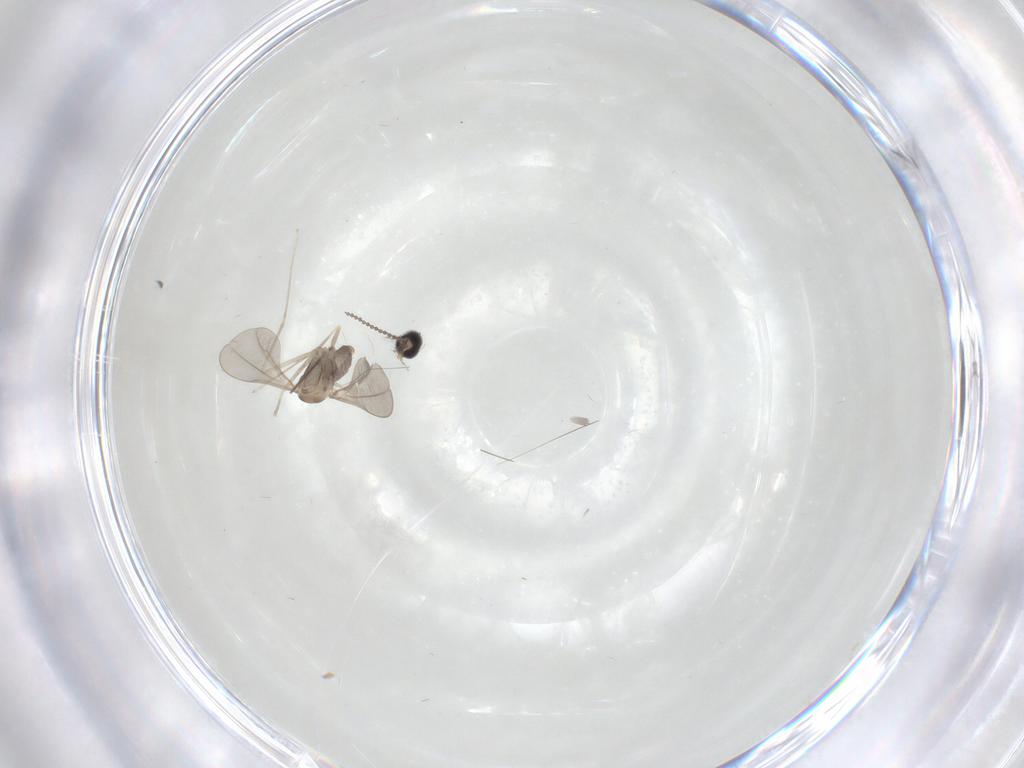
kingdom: Animalia
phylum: Arthropoda
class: Insecta
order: Diptera
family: Cecidomyiidae
